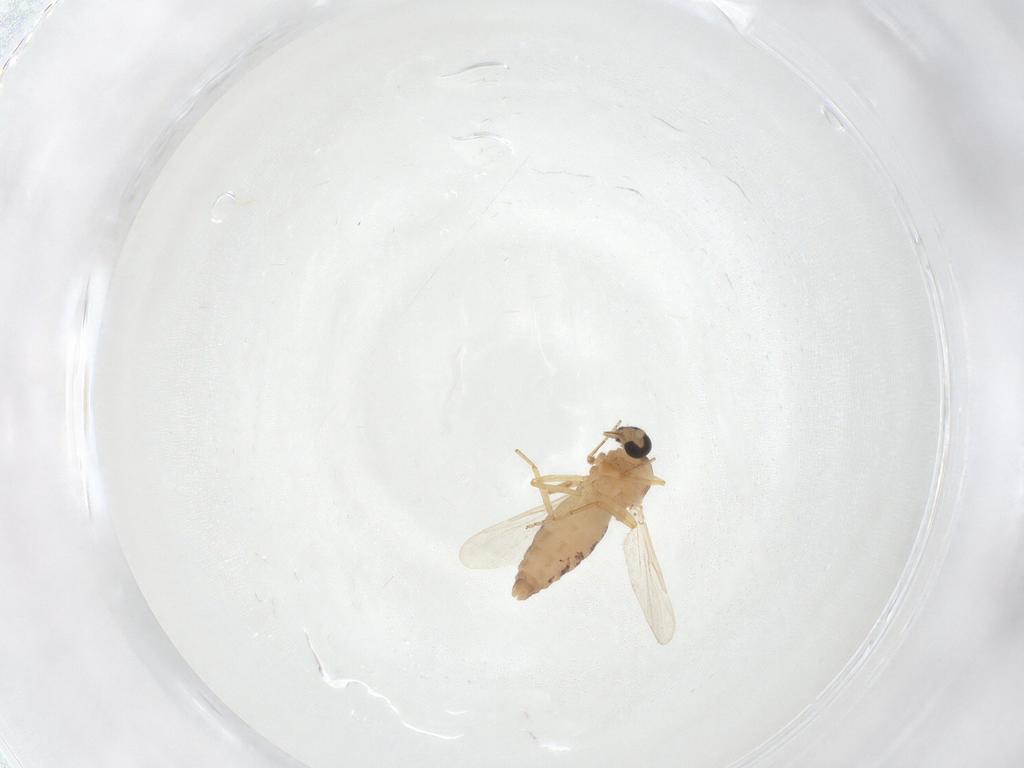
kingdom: Animalia
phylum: Arthropoda
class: Insecta
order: Diptera
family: Ceratopogonidae
